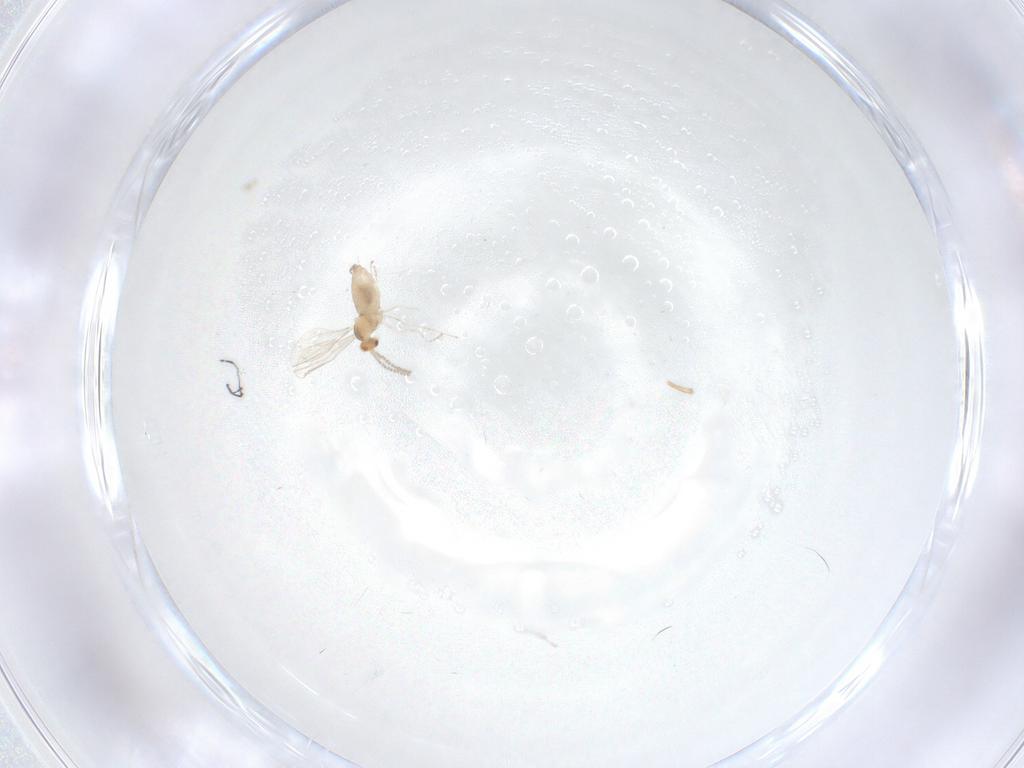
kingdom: Animalia
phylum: Arthropoda
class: Insecta
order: Diptera
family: Cecidomyiidae
